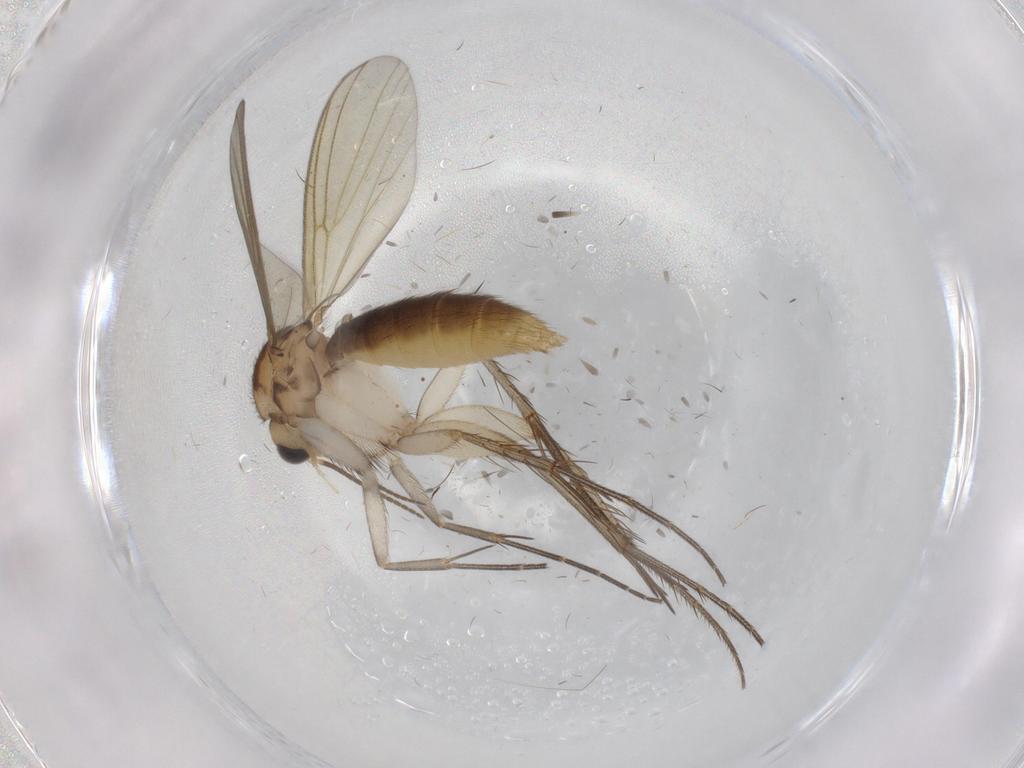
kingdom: Animalia
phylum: Arthropoda
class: Insecta
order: Diptera
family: Mycetophilidae
